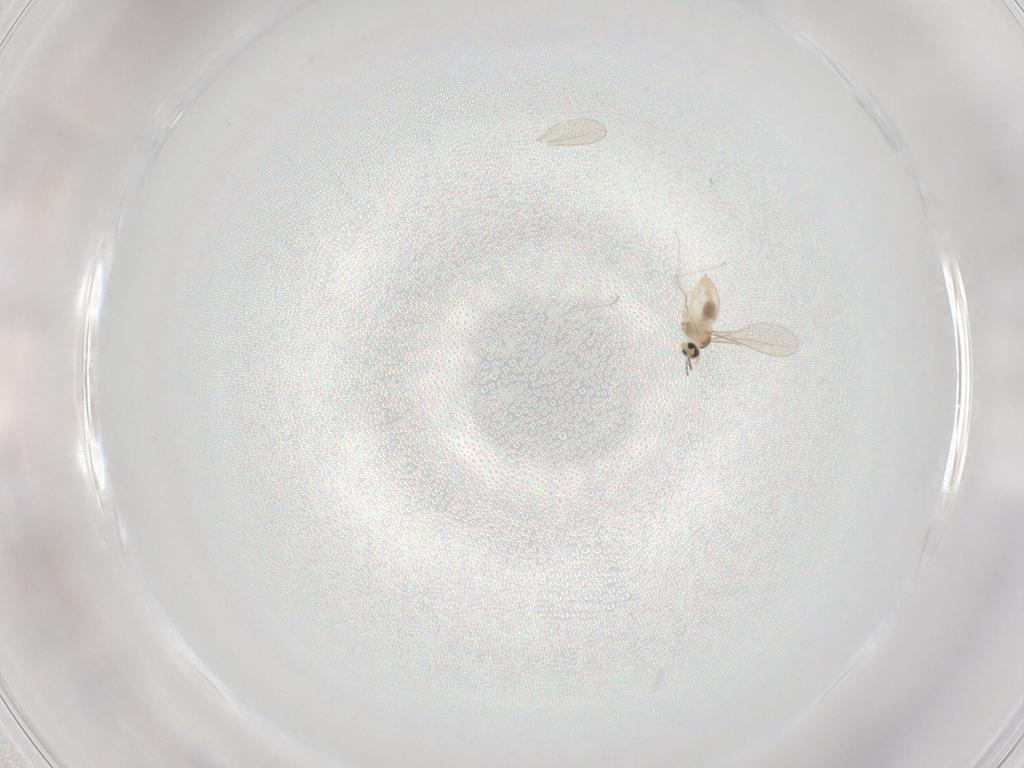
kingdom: Animalia
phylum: Arthropoda
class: Insecta
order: Diptera
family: Cecidomyiidae
